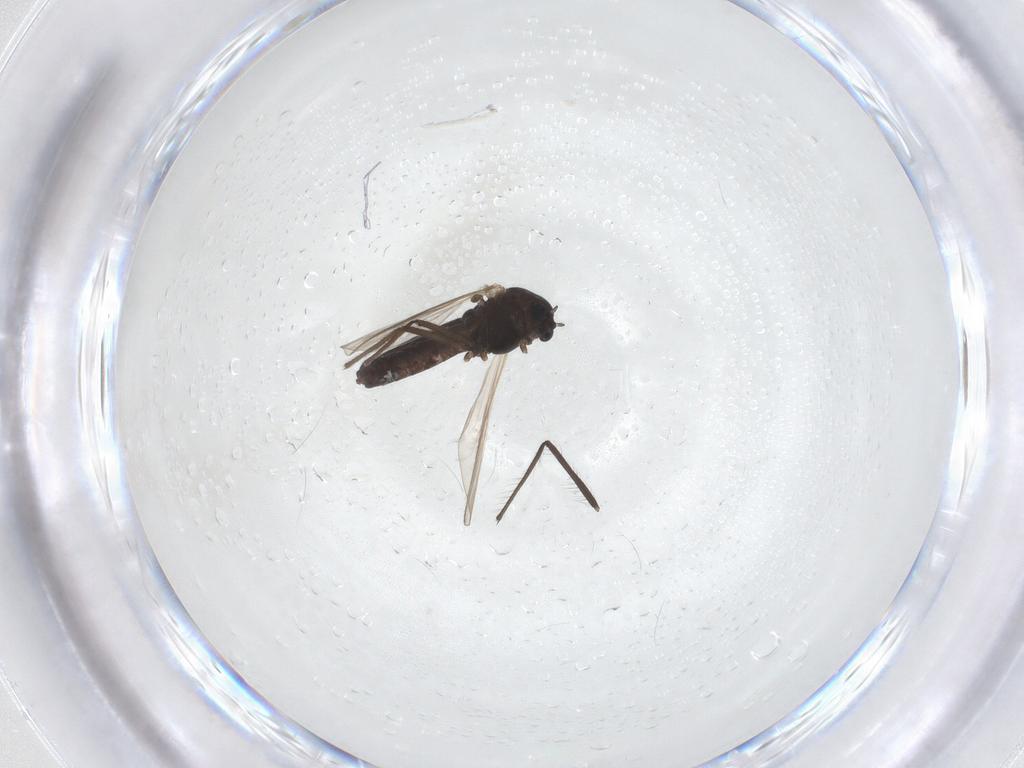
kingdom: Animalia
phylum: Arthropoda
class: Insecta
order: Diptera
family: Chironomidae
